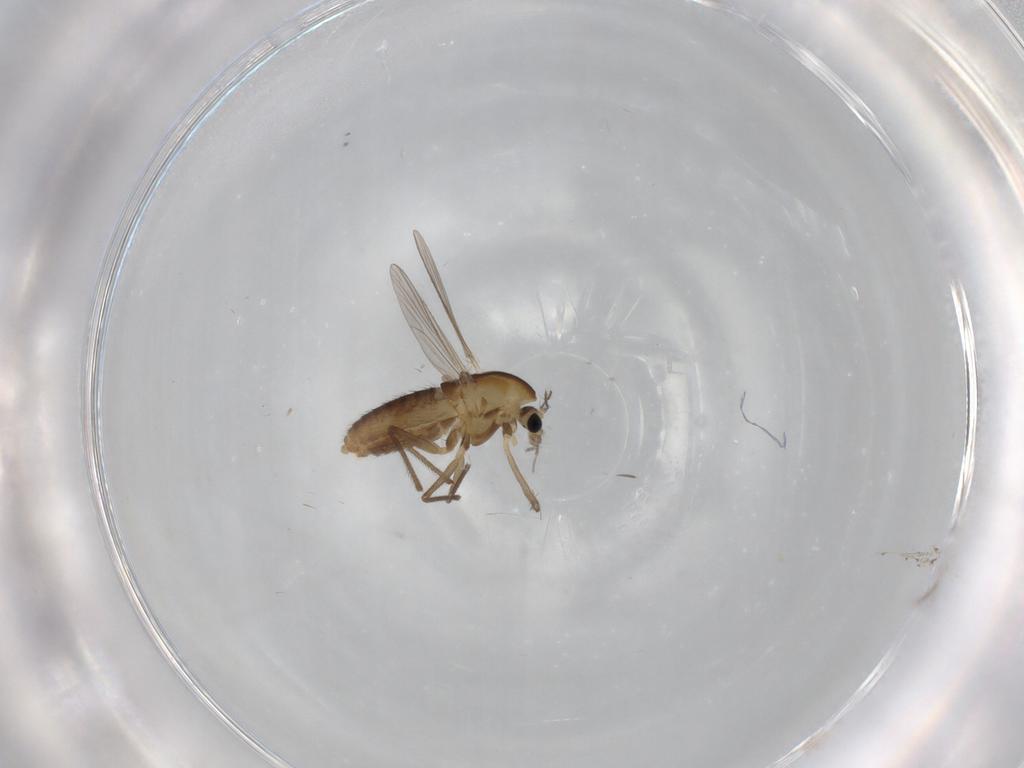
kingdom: Animalia
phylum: Arthropoda
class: Insecta
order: Diptera
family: Chironomidae
